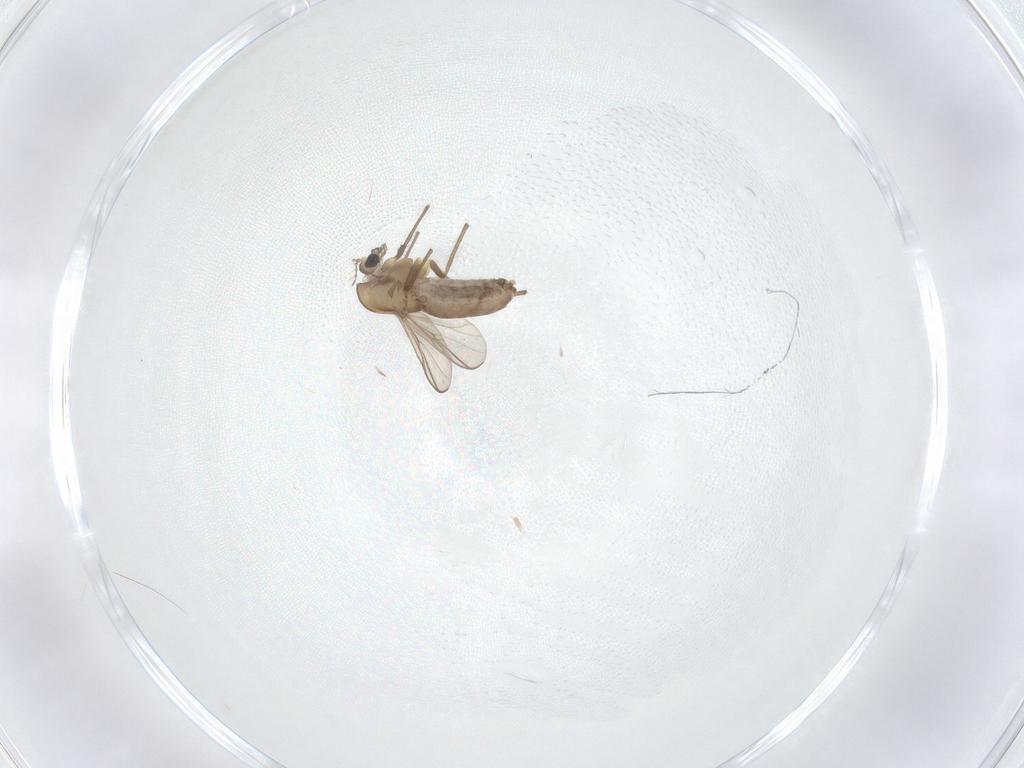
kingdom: Animalia
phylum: Arthropoda
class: Insecta
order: Diptera
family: Chironomidae
